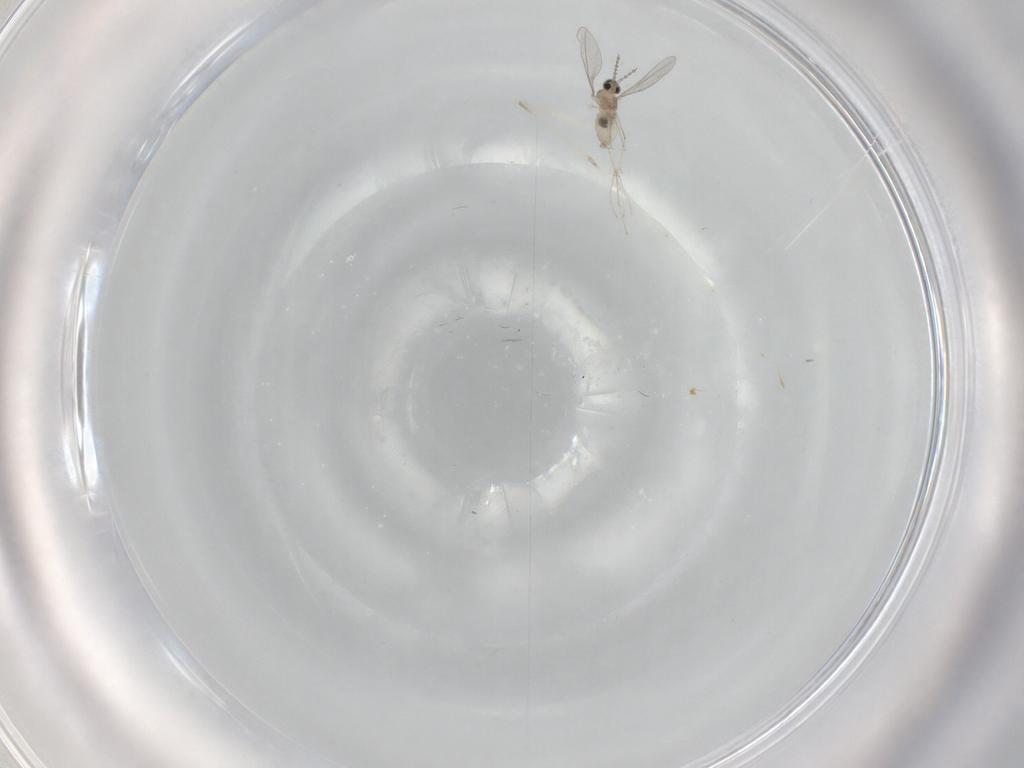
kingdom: Animalia
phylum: Arthropoda
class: Insecta
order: Diptera
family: Cecidomyiidae
